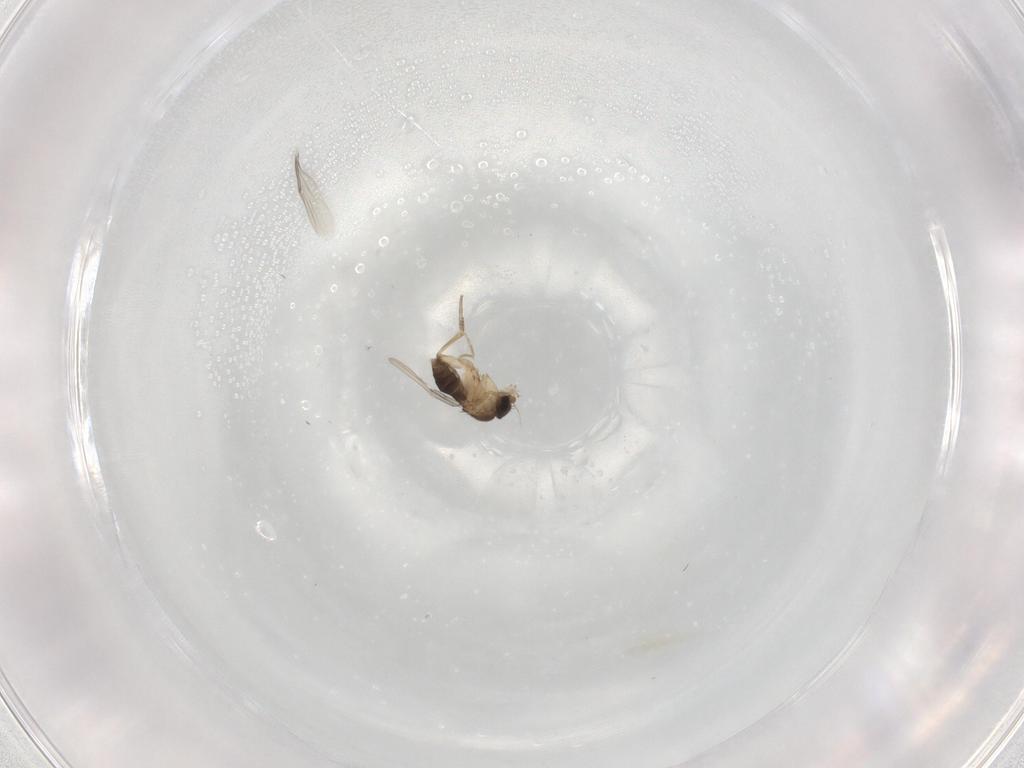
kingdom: Animalia
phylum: Arthropoda
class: Insecta
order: Diptera
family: Phoridae
